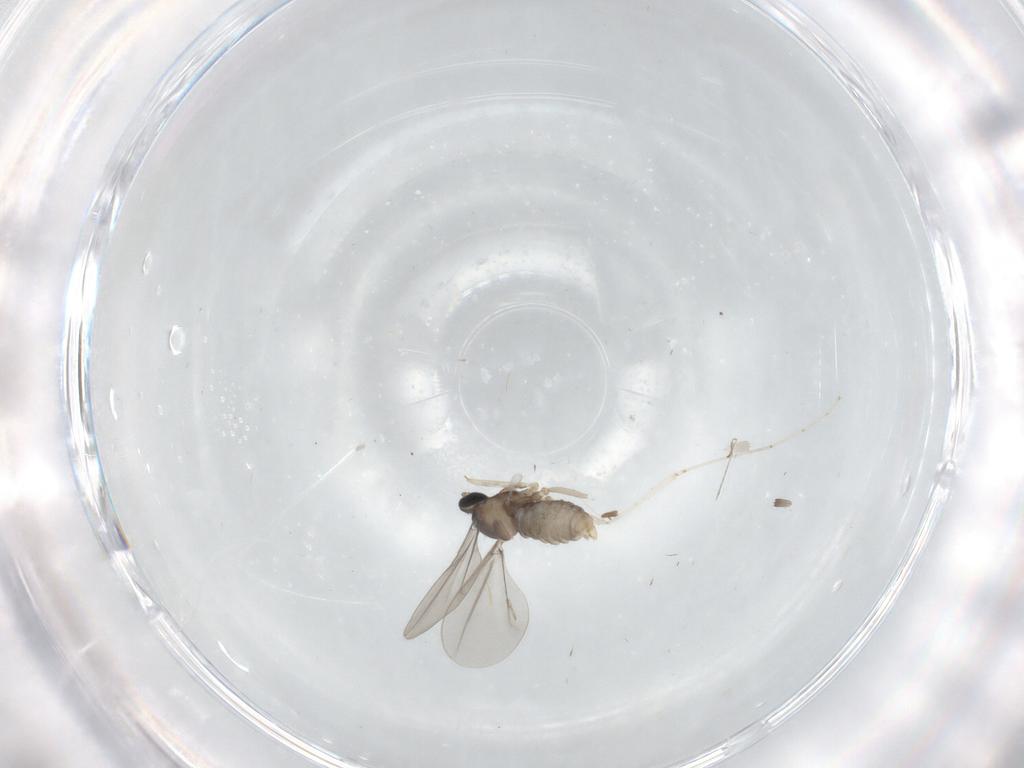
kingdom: Animalia
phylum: Arthropoda
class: Insecta
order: Diptera
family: Cecidomyiidae
